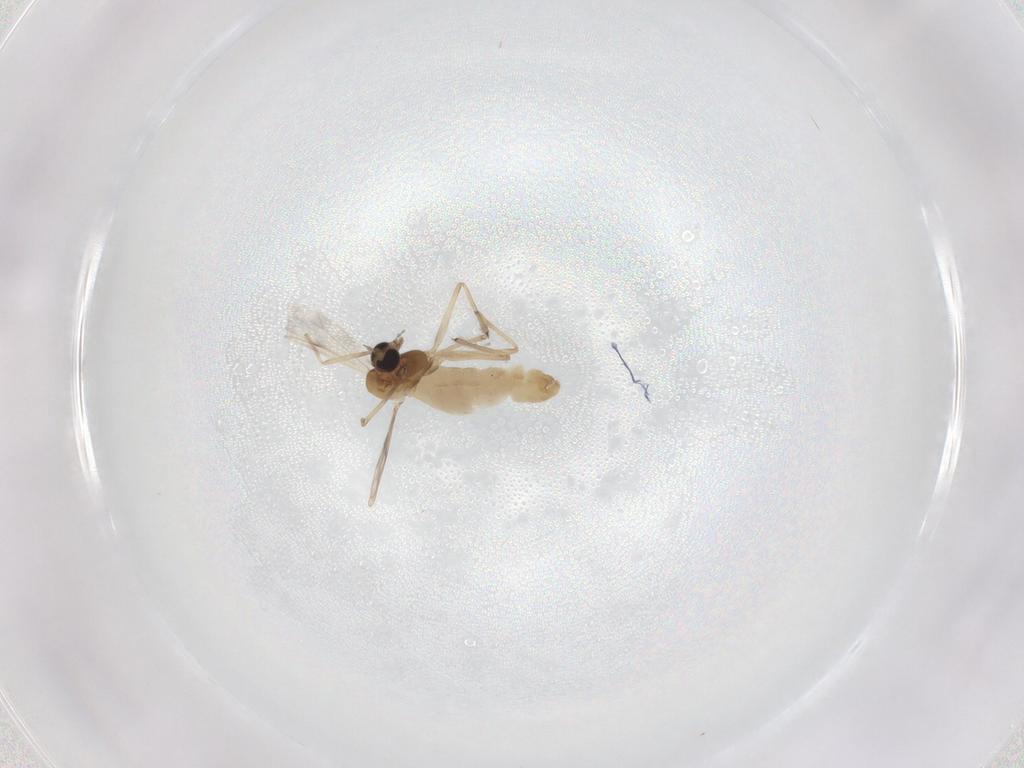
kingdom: Animalia
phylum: Arthropoda
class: Insecta
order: Diptera
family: Chironomidae
